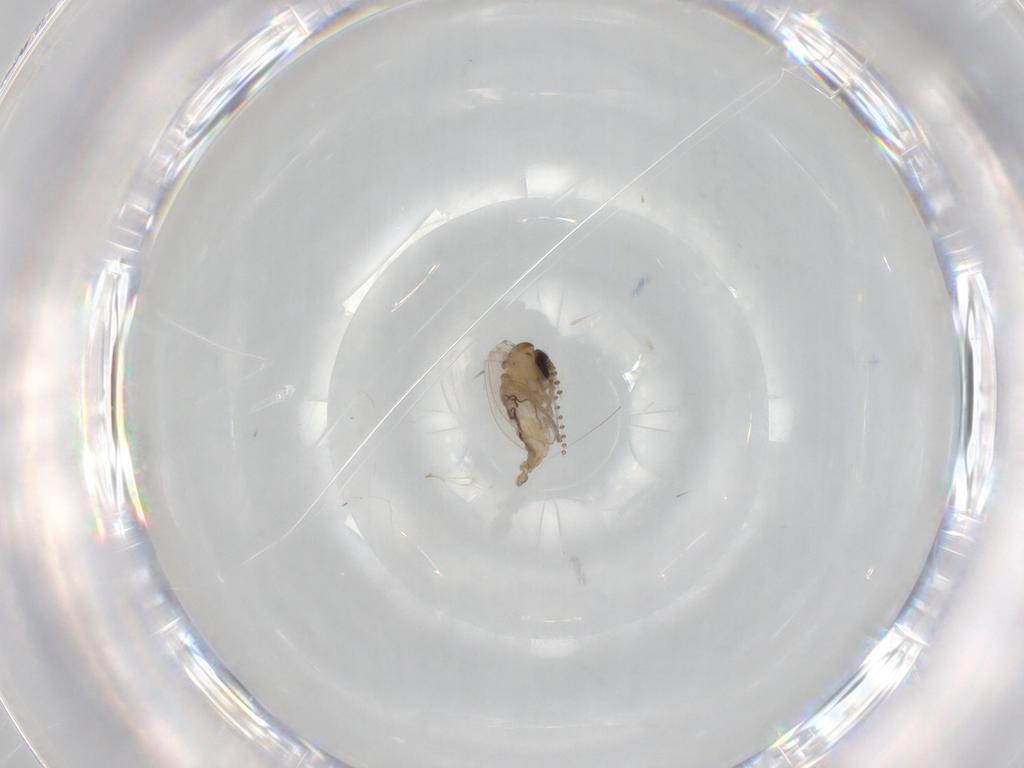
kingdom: Animalia
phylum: Arthropoda
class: Insecta
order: Diptera
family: Psychodidae
